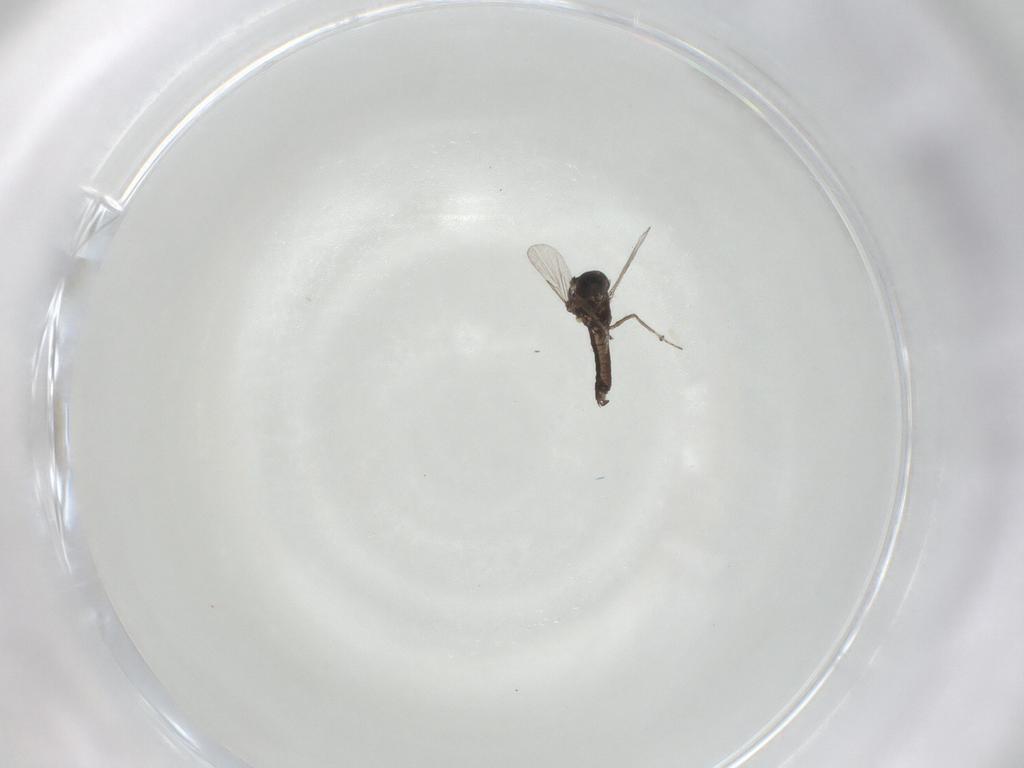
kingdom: Animalia
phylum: Arthropoda
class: Insecta
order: Diptera
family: Ceratopogonidae
